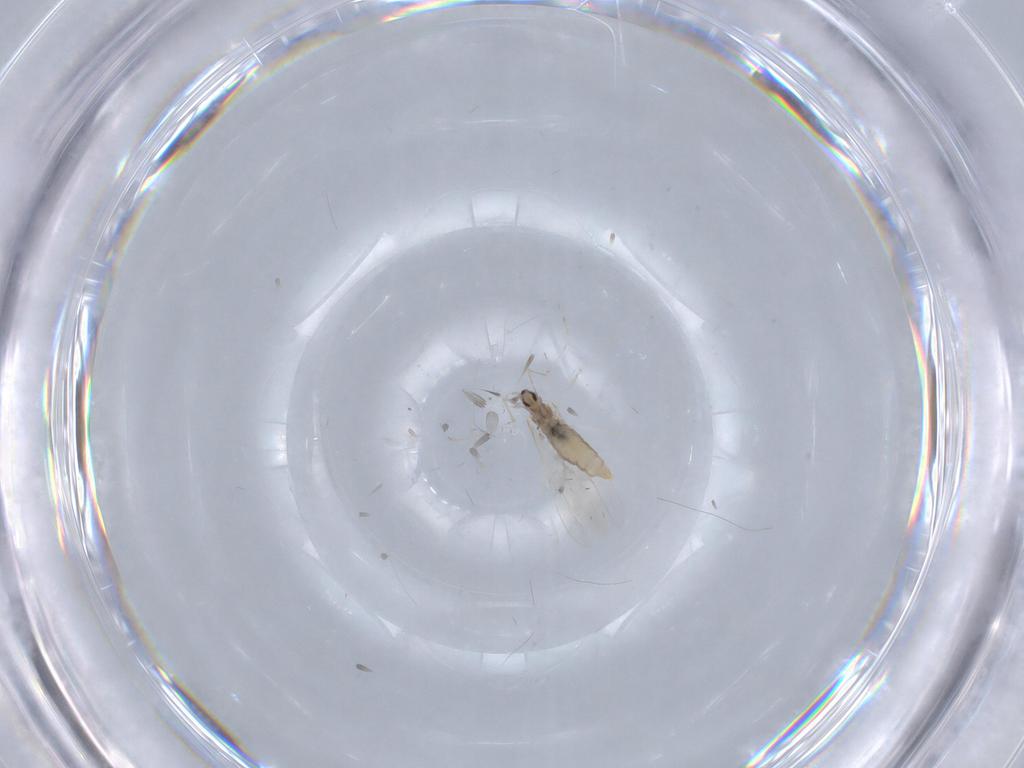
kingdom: Animalia
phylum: Arthropoda
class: Insecta
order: Diptera
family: Cecidomyiidae
